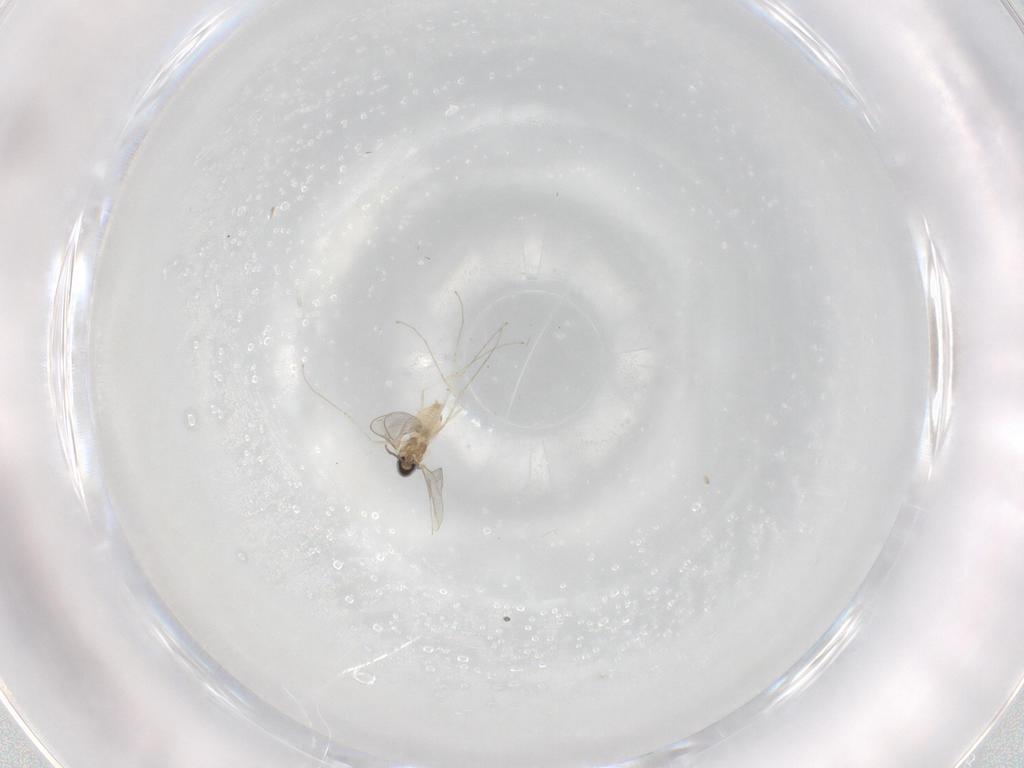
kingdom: Animalia
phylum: Arthropoda
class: Insecta
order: Diptera
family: Cecidomyiidae
